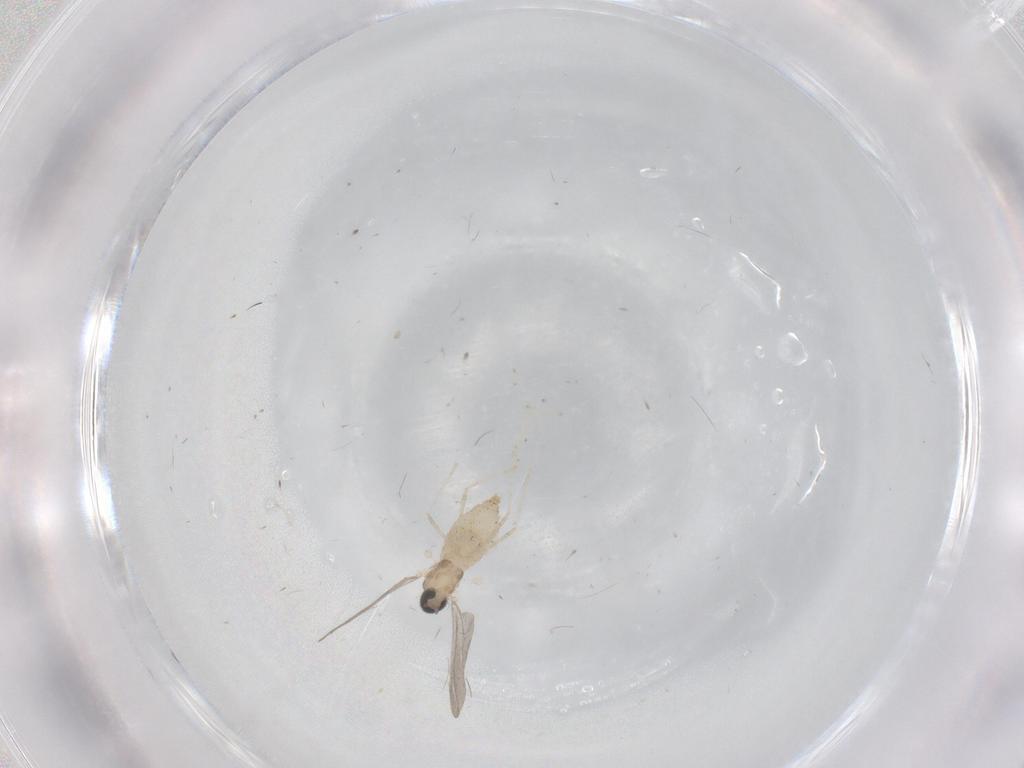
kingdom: Animalia
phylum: Arthropoda
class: Insecta
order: Diptera
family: Ceratopogonidae
